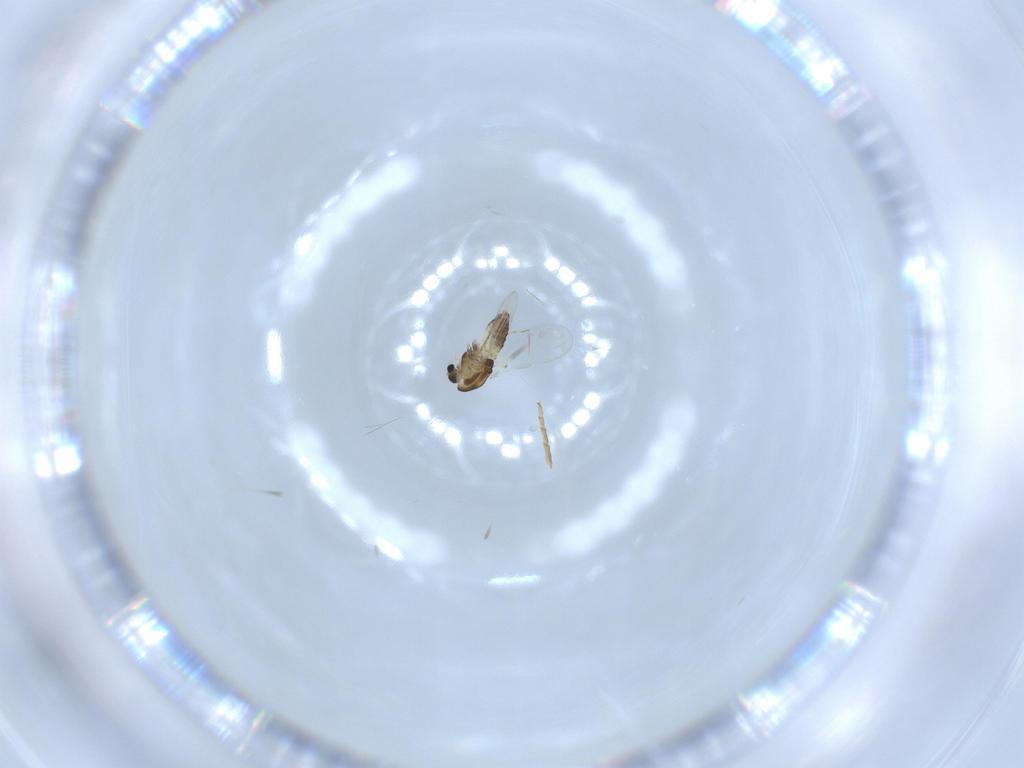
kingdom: Animalia
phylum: Arthropoda
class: Insecta
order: Diptera
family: Chironomidae
